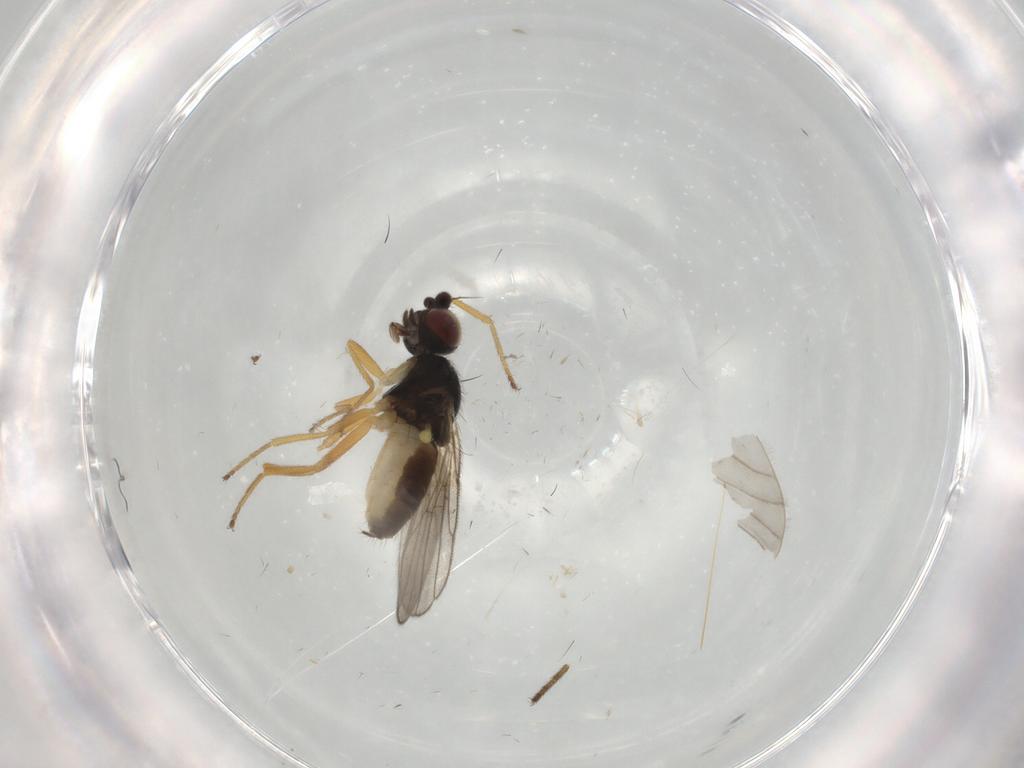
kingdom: Animalia
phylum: Arthropoda
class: Insecta
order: Diptera
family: Chloropidae
